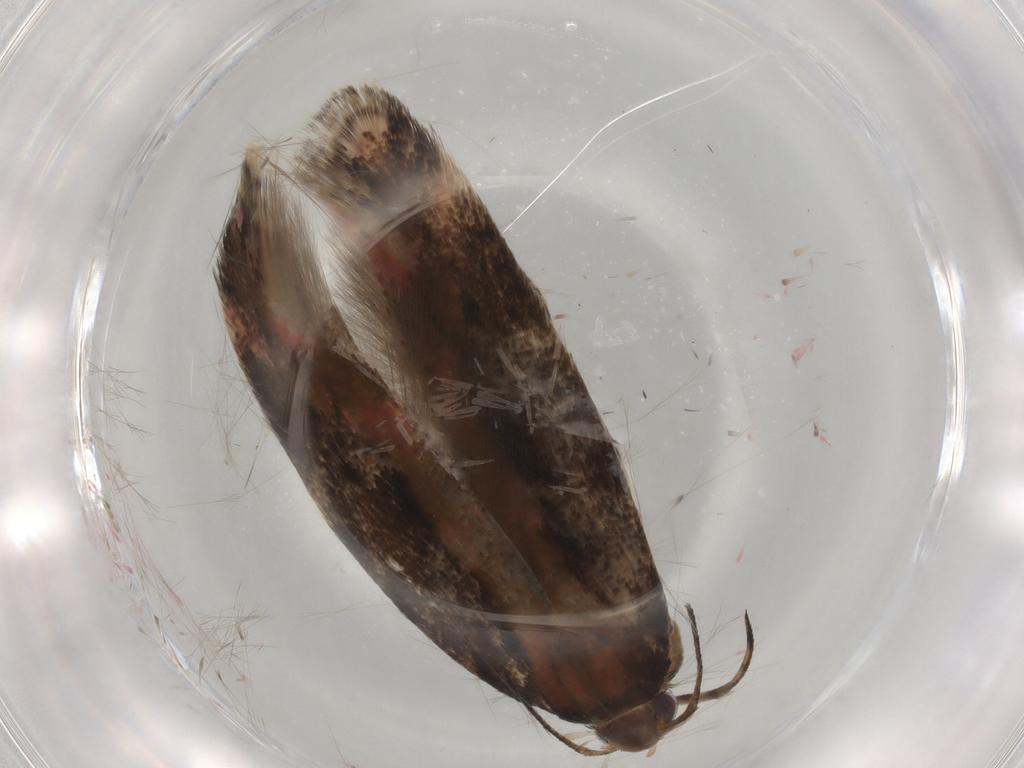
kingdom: Animalia
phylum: Arthropoda
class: Insecta
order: Lepidoptera
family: Gelechiidae
